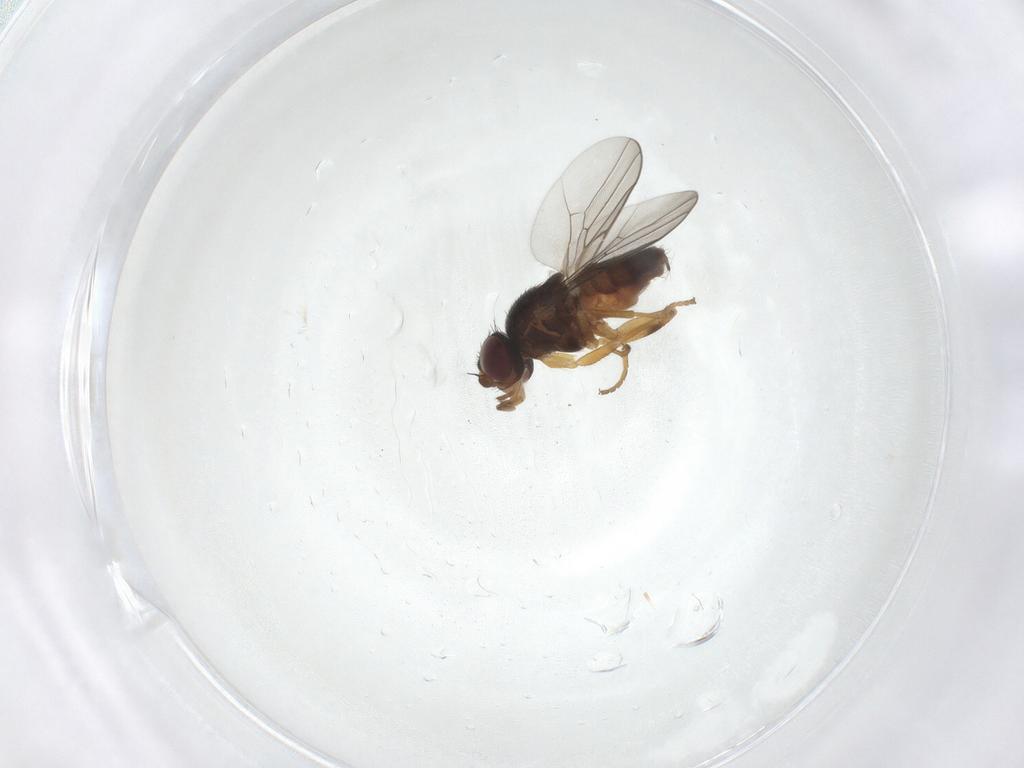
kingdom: Animalia
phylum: Arthropoda
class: Insecta
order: Diptera
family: Chloropidae
